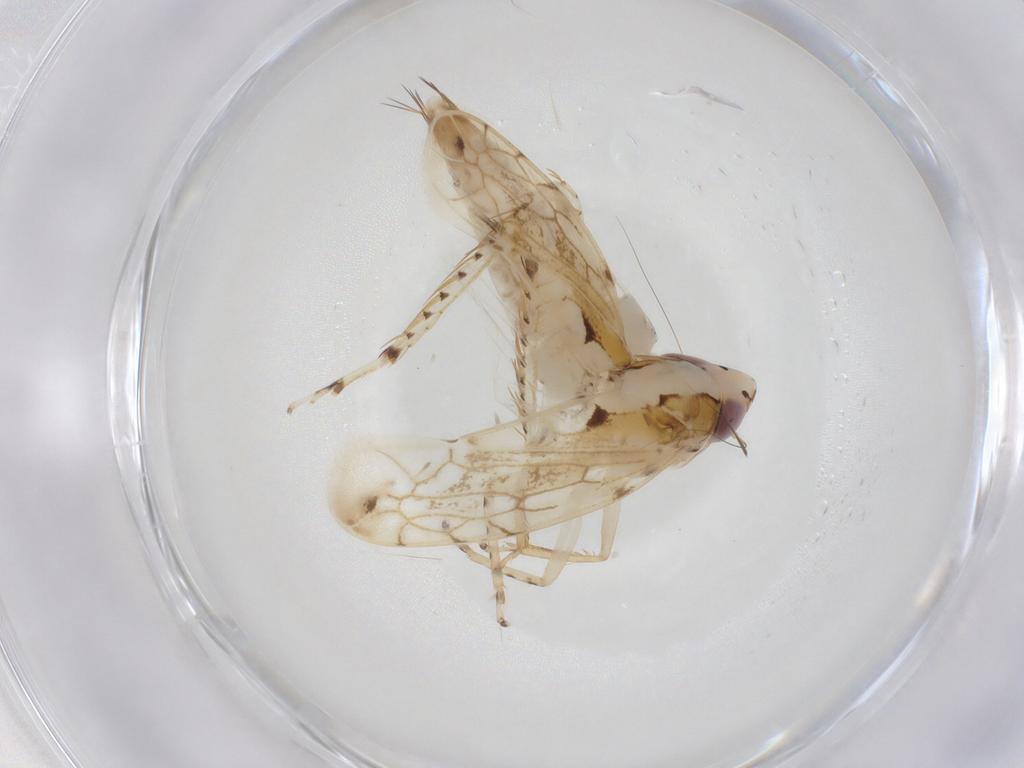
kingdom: Animalia
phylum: Arthropoda
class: Insecta
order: Hemiptera
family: Cicadellidae
